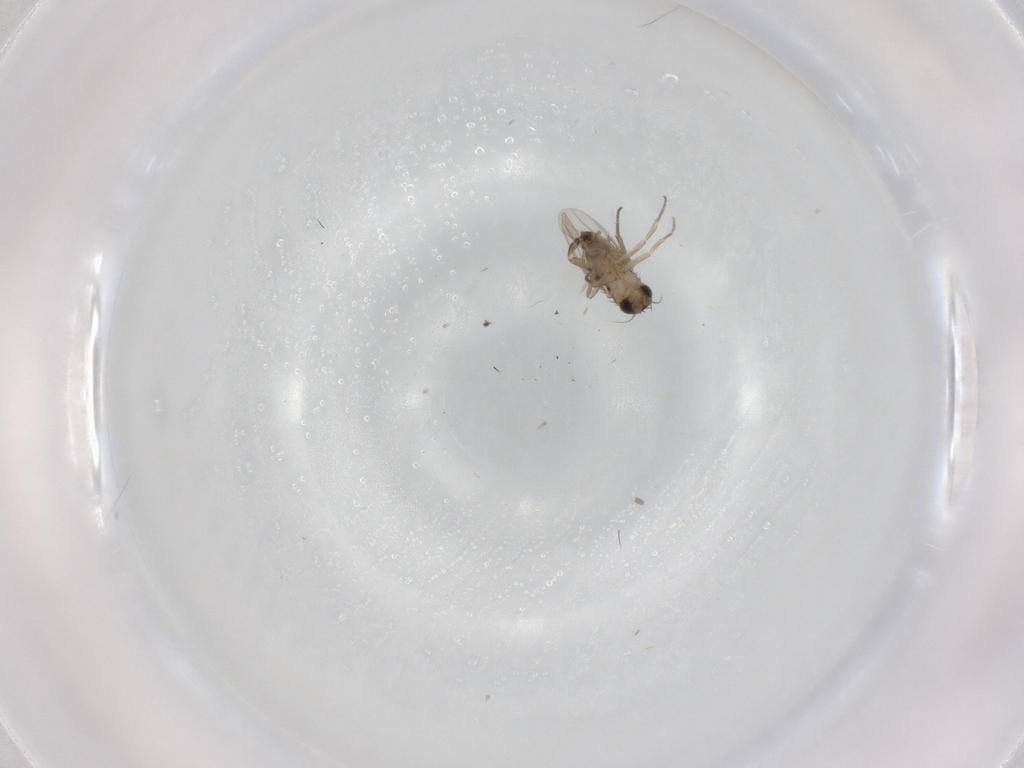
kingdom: Animalia
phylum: Arthropoda
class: Insecta
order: Diptera
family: Phoridae
